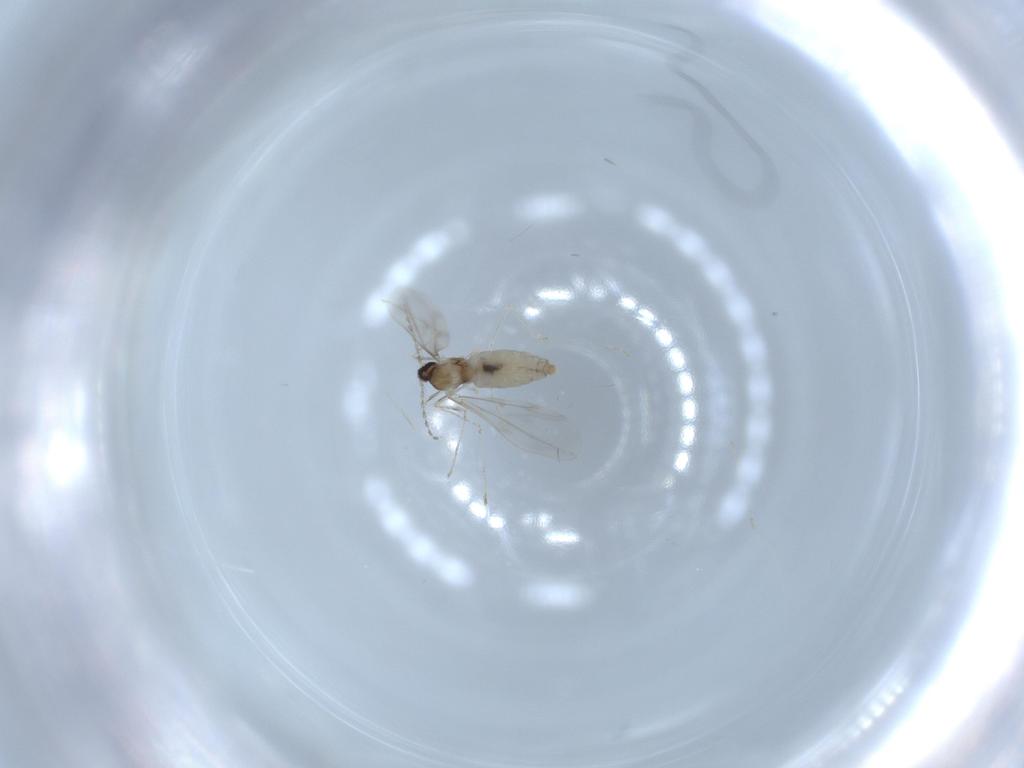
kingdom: Animalia
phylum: Arthropoda
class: Insecta
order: Diptera
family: Cecidomyiidae
